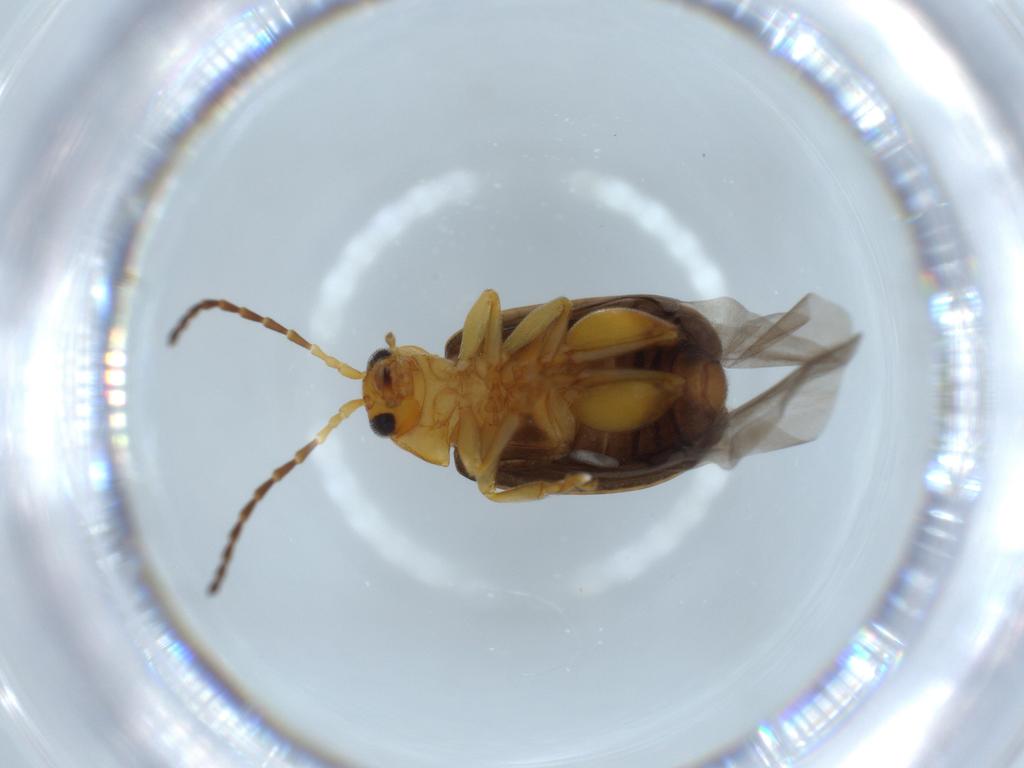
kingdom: Animalia
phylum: Arthropoda
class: Insecta
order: Coleoptera
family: Chrysomelidae
